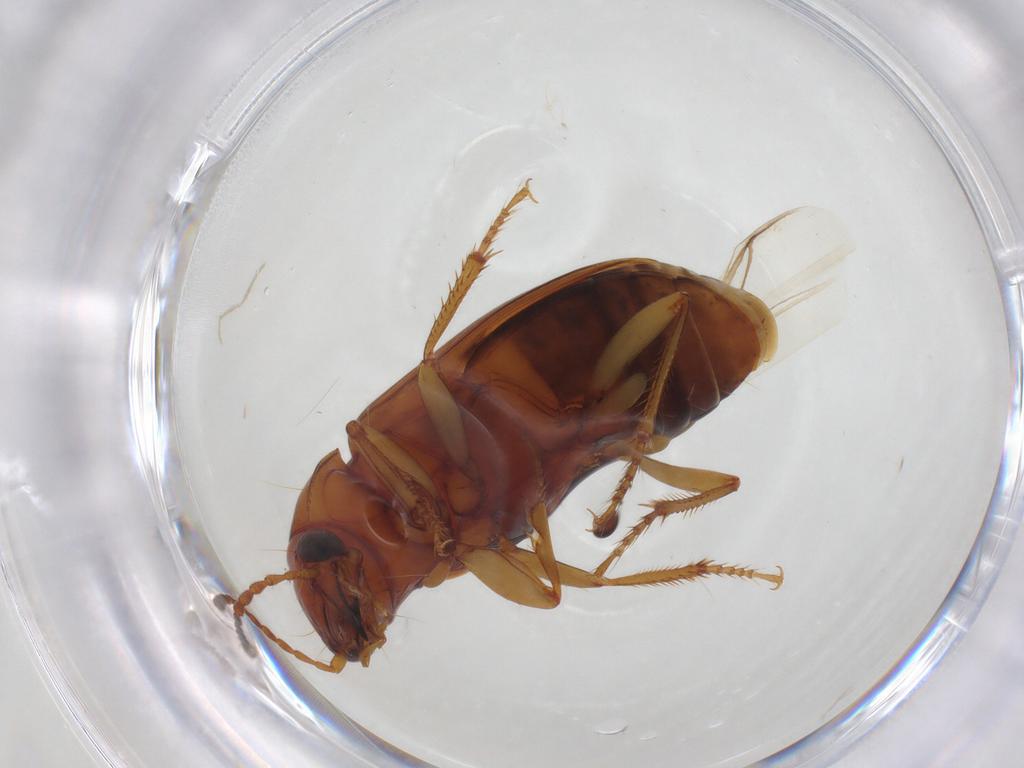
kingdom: Animalia
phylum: Arthropoda
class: Insecta
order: Coleoptera
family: Carabidae
